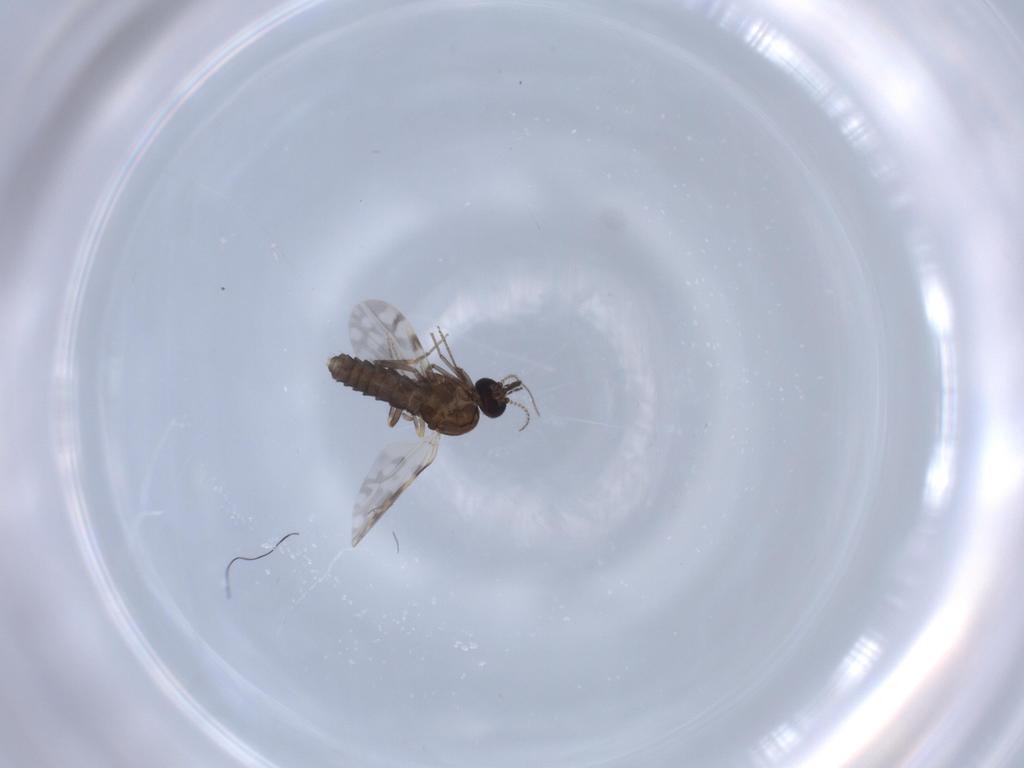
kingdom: Animalia
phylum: Arthropoda
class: Insecta
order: Diptera
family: Ceratopogonidae
